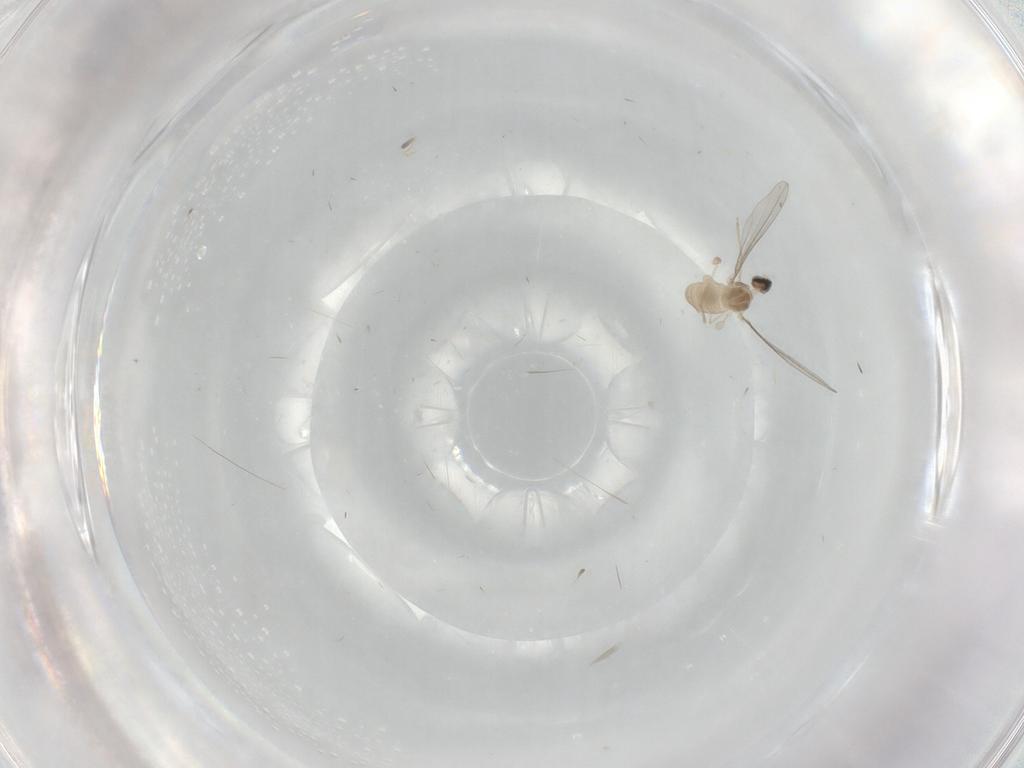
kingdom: Animalia
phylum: Arthropoda
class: Insecta
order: Diptera
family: Cecidomyiidae
